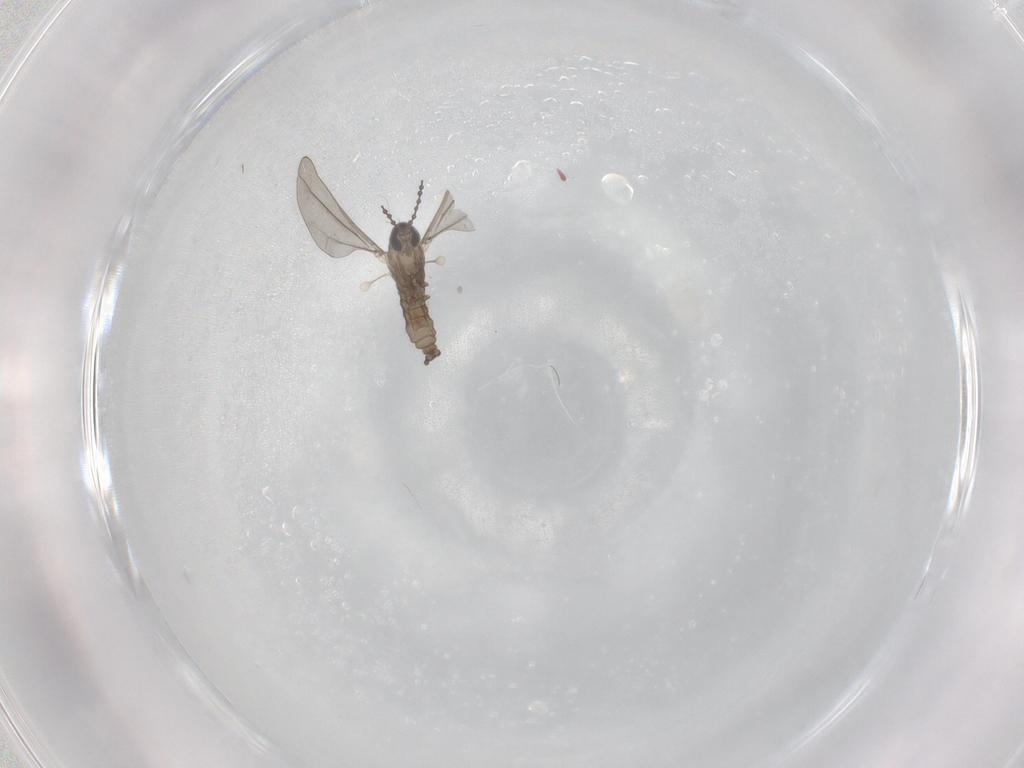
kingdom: Animalia
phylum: Arthropoda
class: Insecta
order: Diptera
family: Cecidomyiidae
